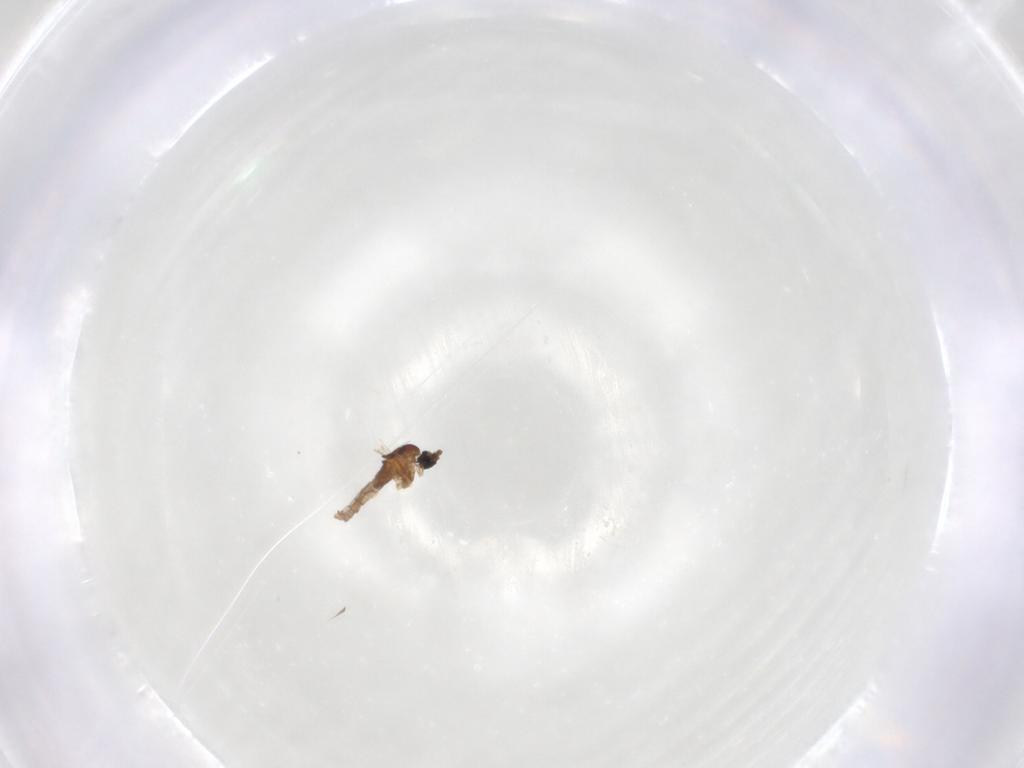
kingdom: Animalia
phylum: Arthropoda
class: Insecta
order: Diptera
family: Cecidomyiidae
